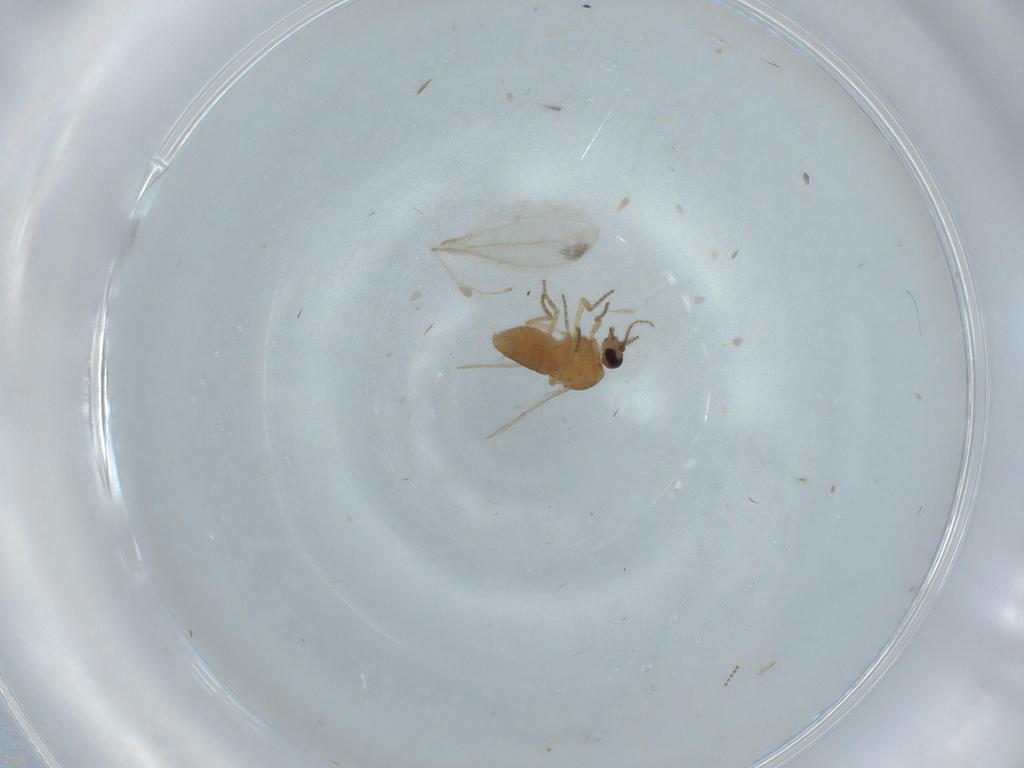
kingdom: Animalia
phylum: Arthropoda
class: Insecta
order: Diptera
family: Ceratopogonidae
